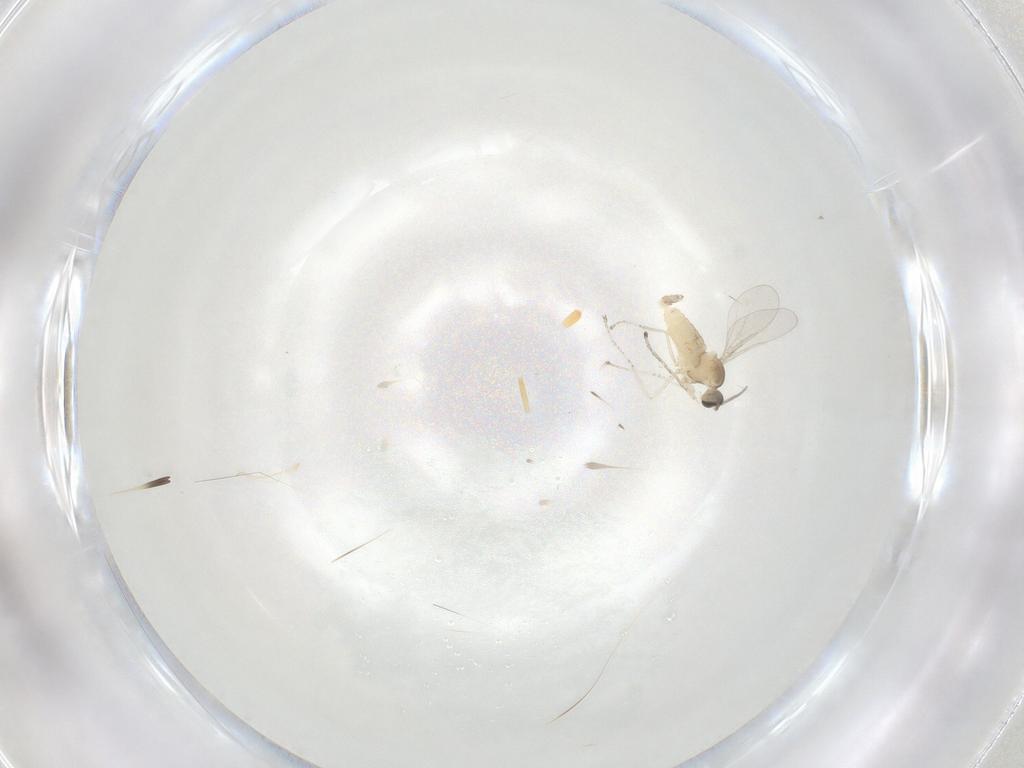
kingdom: Animalia
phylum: Arthropoda
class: Insecta
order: Diptera
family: Cecidomyiidae
